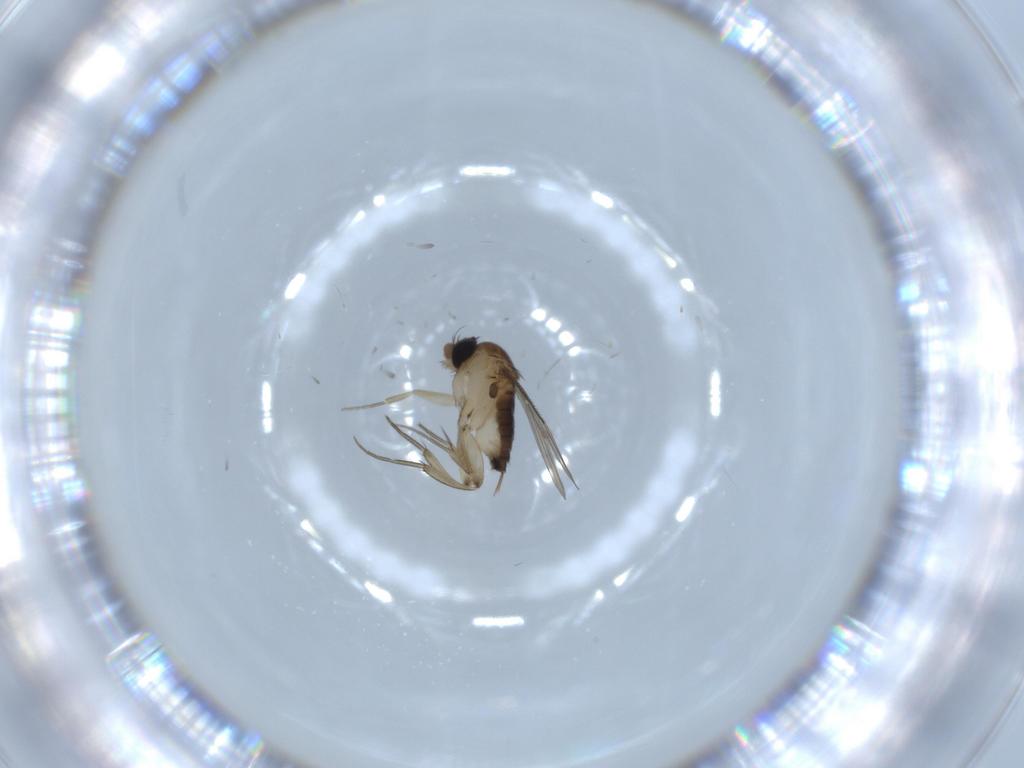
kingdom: Animalia
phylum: Arthropoda
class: Insecta
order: Diptera
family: Phoridae
